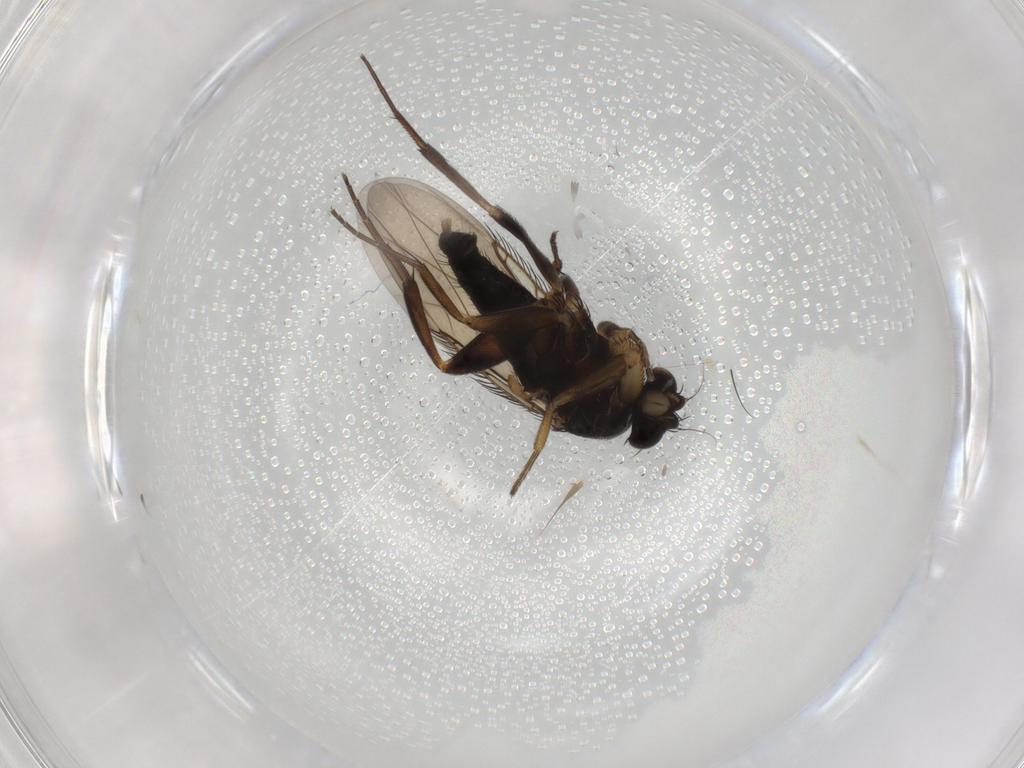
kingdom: Animalia
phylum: Arthropoda
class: Insecta
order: Diptera
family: Phoridae
